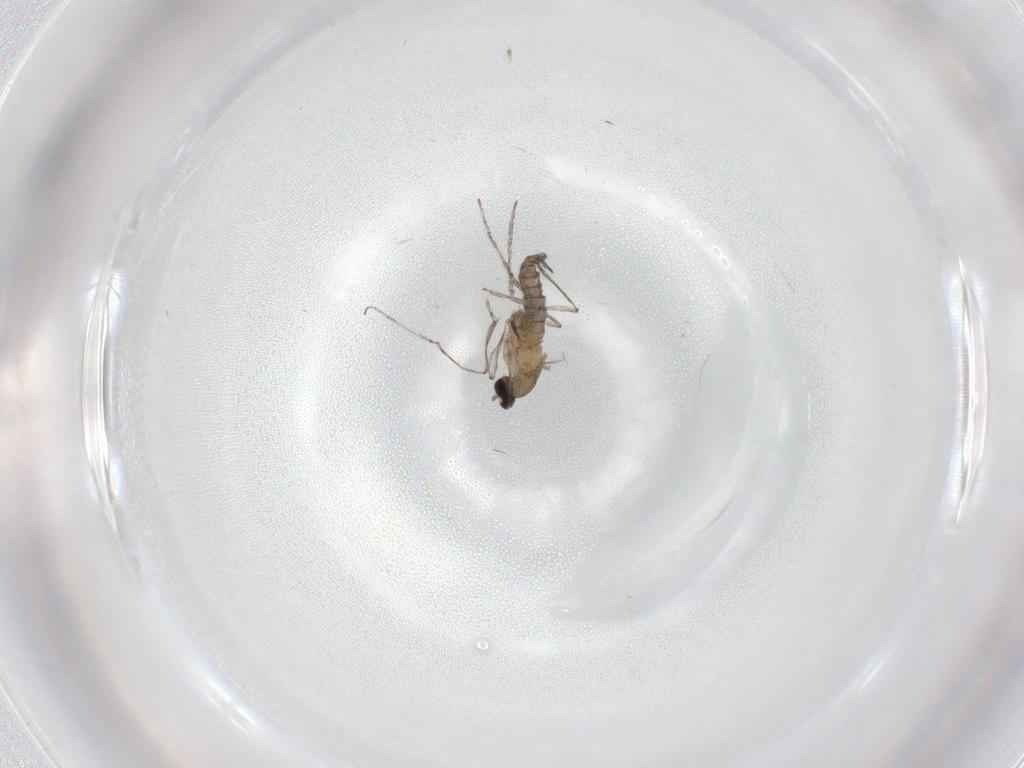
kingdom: Animalia
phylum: Arthropoda
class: Insecta
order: Diptera
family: Cecidomyiidae
